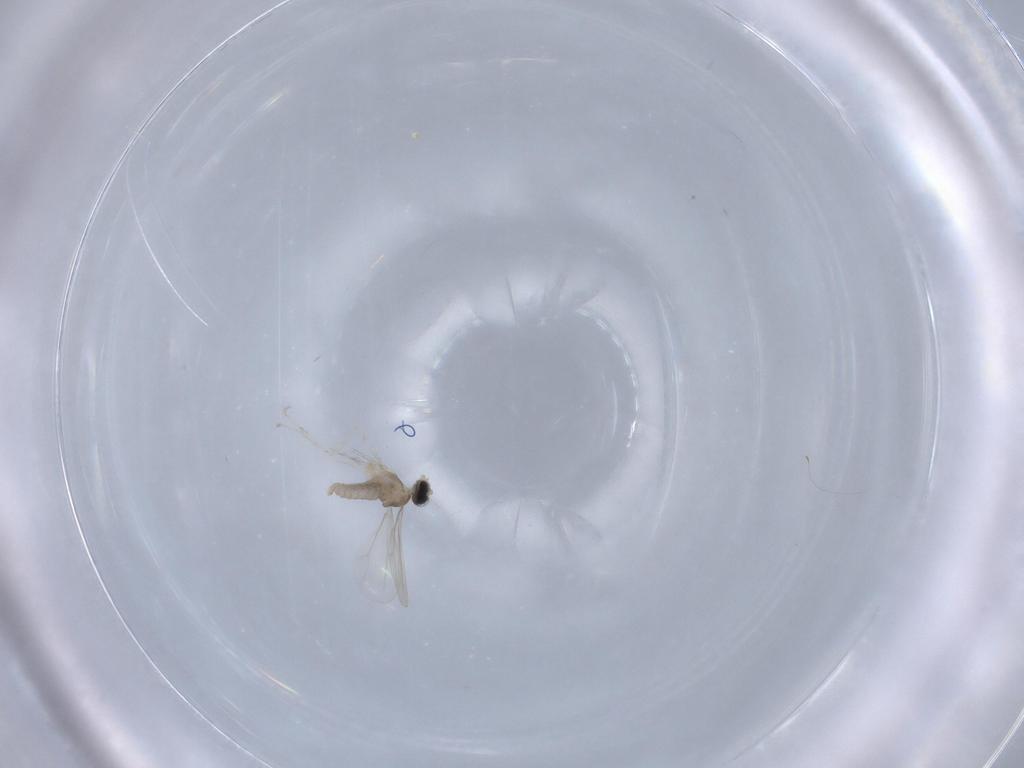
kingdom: Animalia
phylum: Arthropoda
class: Insecta
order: Diptera
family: Cecidomyiidae
